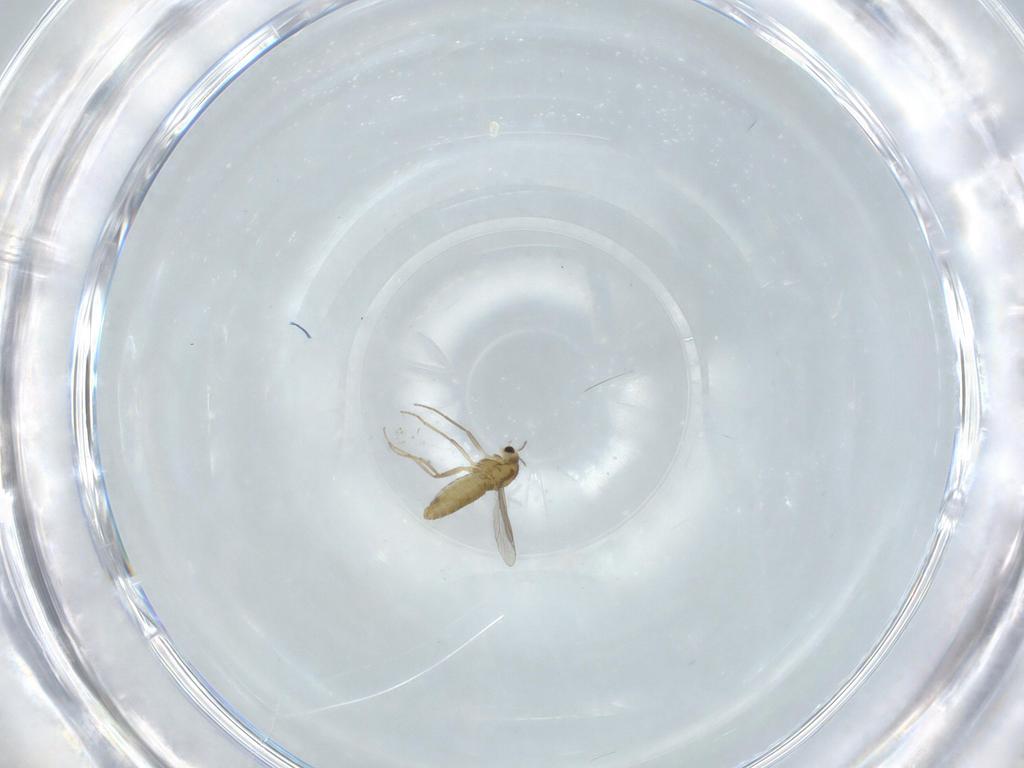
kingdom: Animalia
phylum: Arthropoda
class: Insecta
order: Diptera
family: Chironomidae
